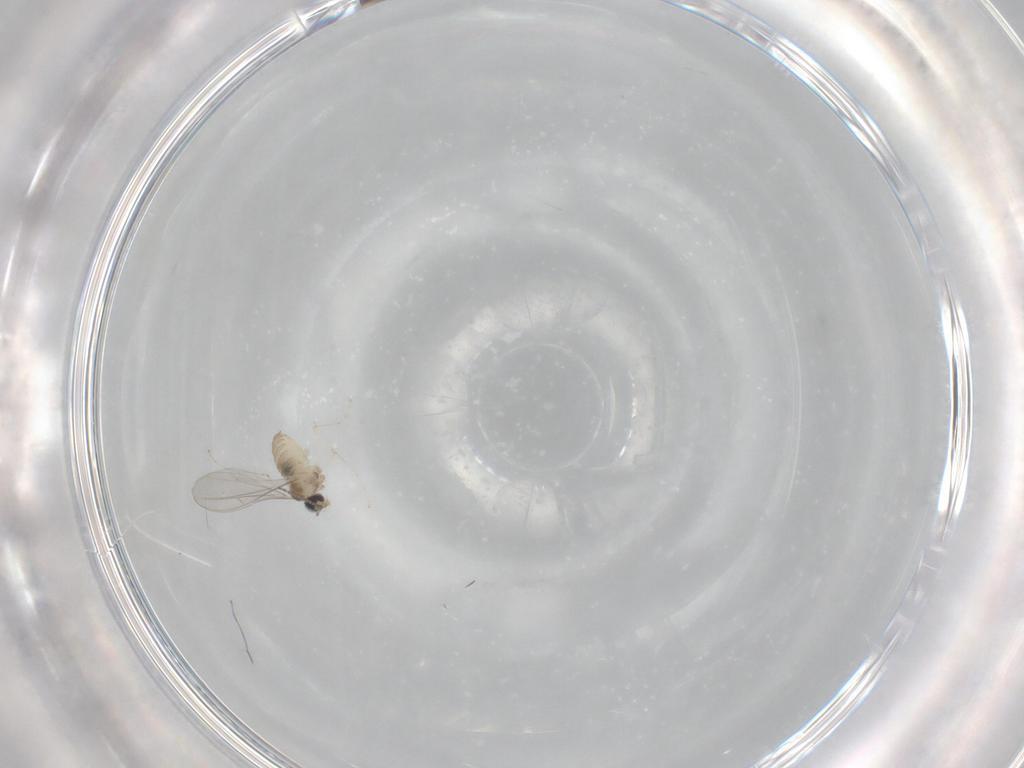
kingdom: Animalia
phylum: Arthropoda
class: Insecta
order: Diptera
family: Cecidomyiidae
